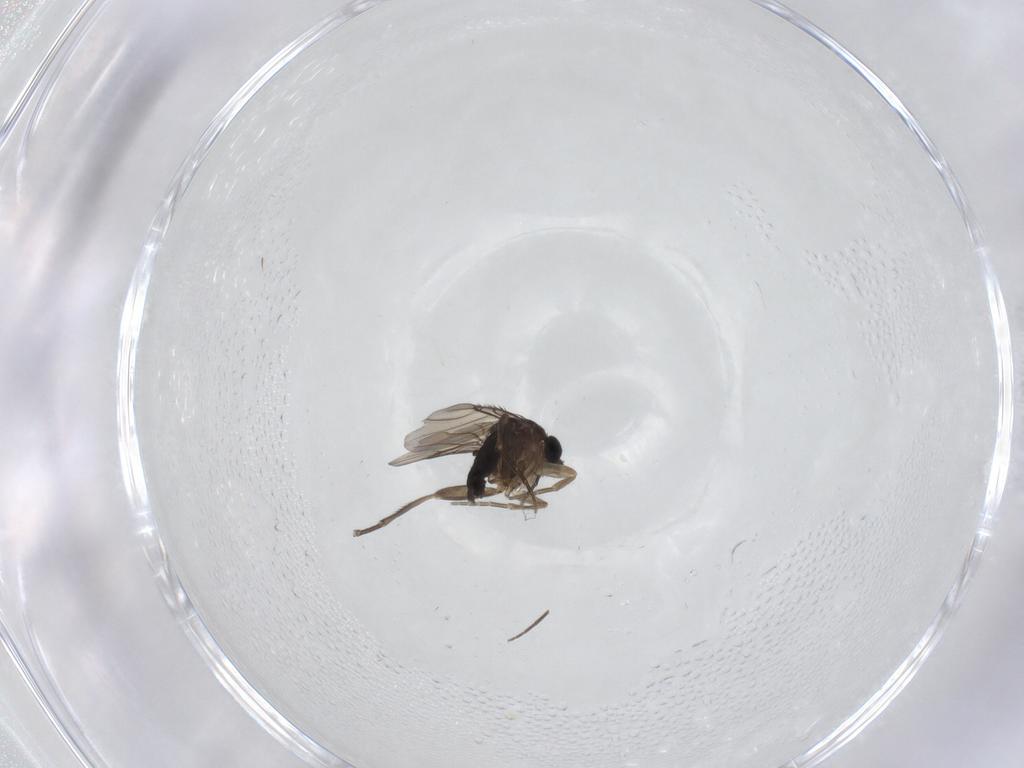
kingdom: Animalia
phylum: Arthropoda
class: Insecta
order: Diptera
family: Phoridae
